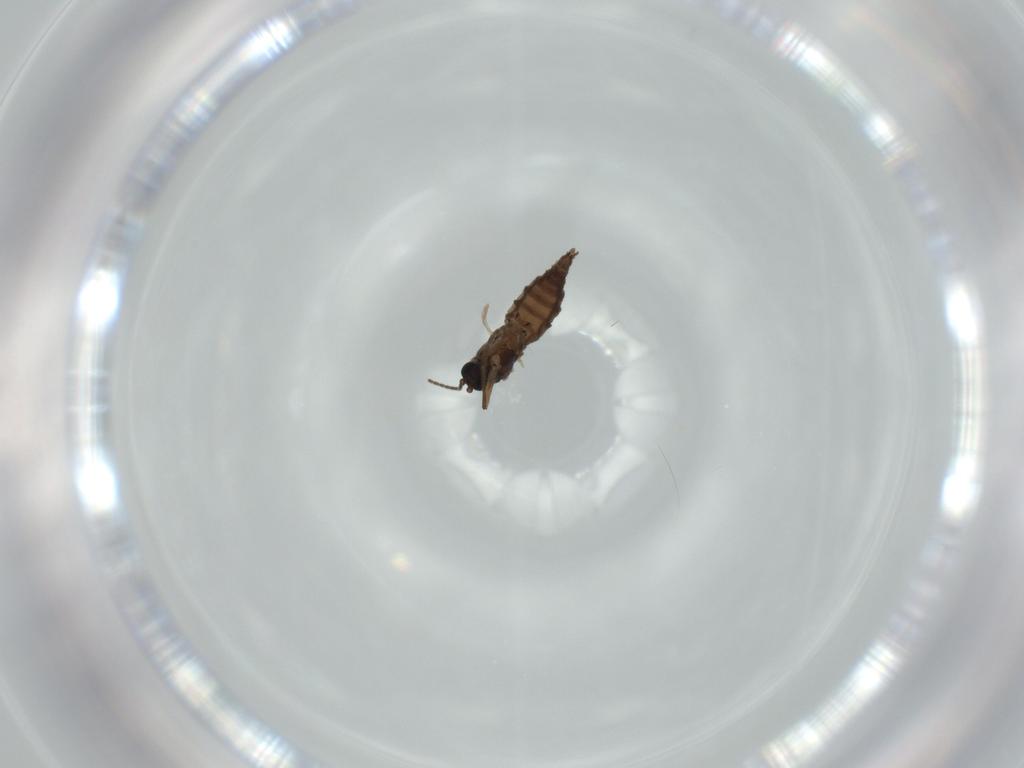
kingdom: Animalia
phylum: Arthropoda
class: Insecta
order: Diptera
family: Sciaridae
